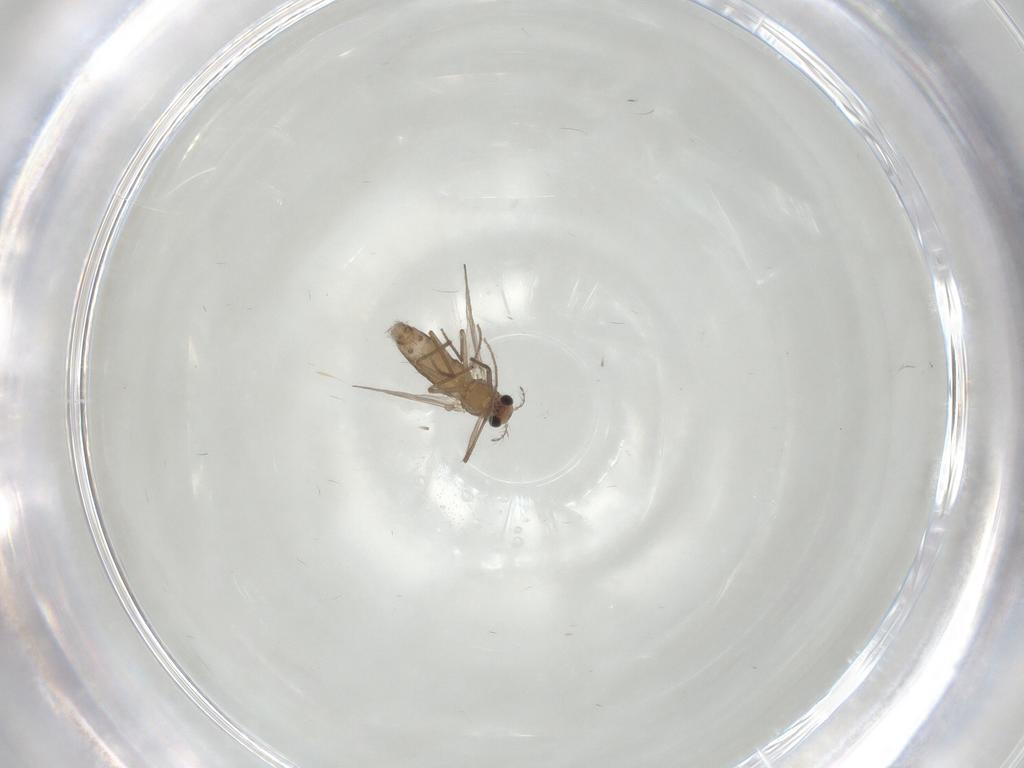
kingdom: Animalia
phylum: Arthropoda
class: Insecta
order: Diptera
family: Chironomidae
